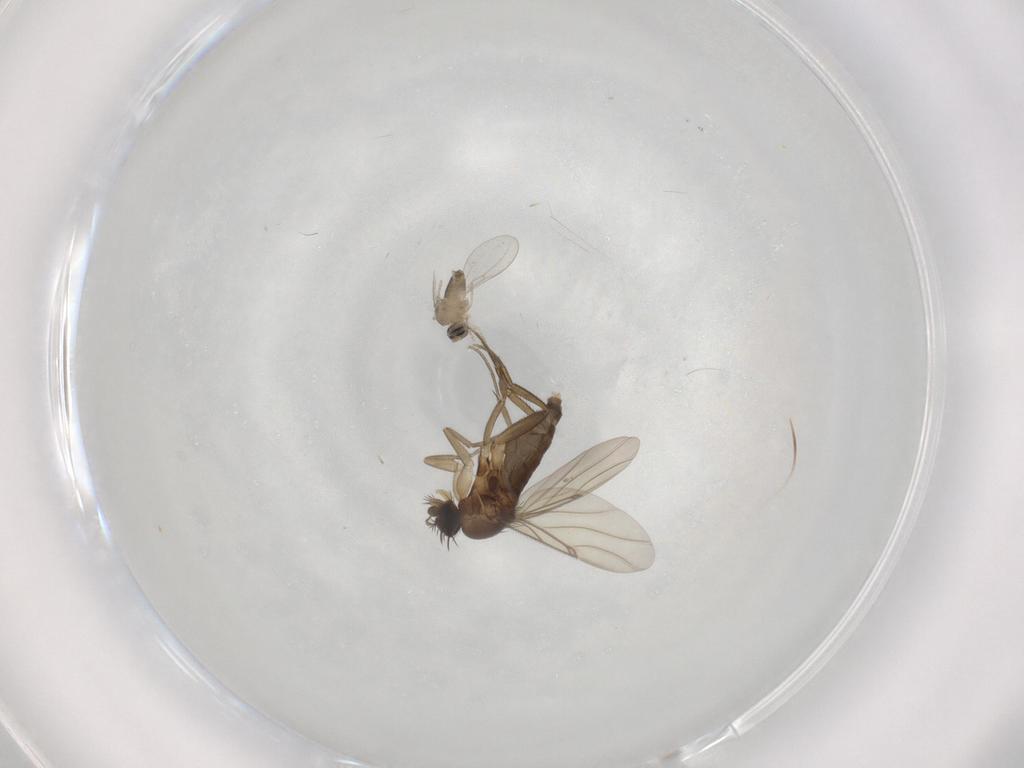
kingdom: Animalia
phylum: Arthropoda
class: Insecta
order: Diptera
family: Cecidomyiidae
